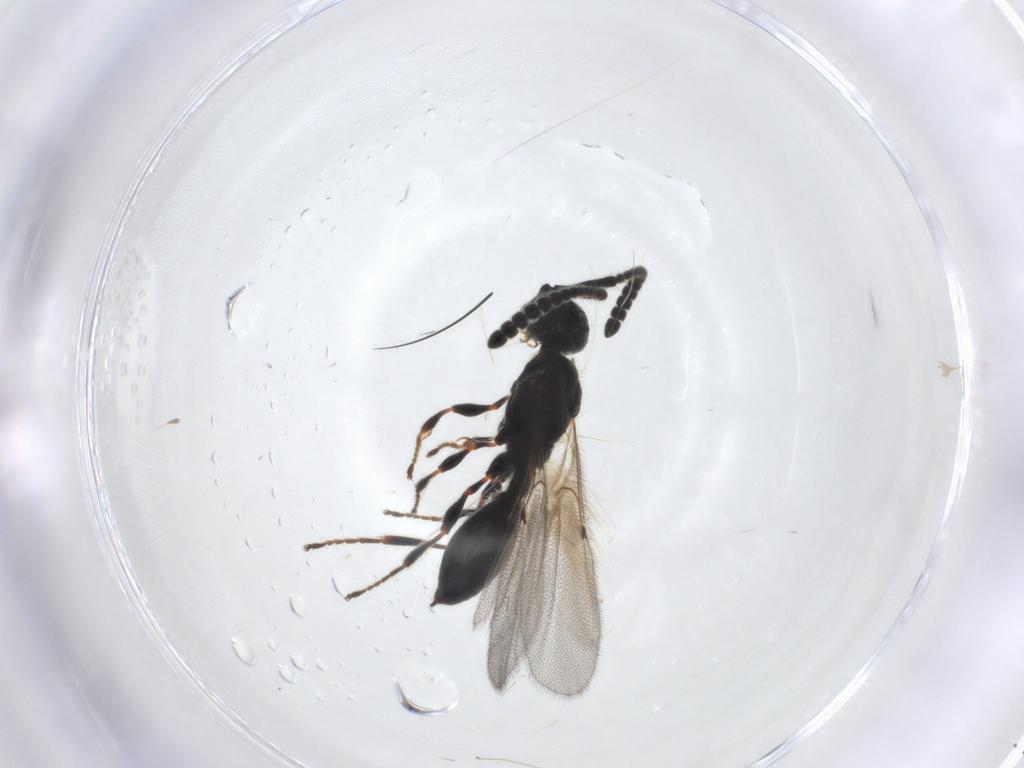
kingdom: Animalia
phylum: Arthropoda
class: Insecta
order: Hymenoptera
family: Diapriidae
